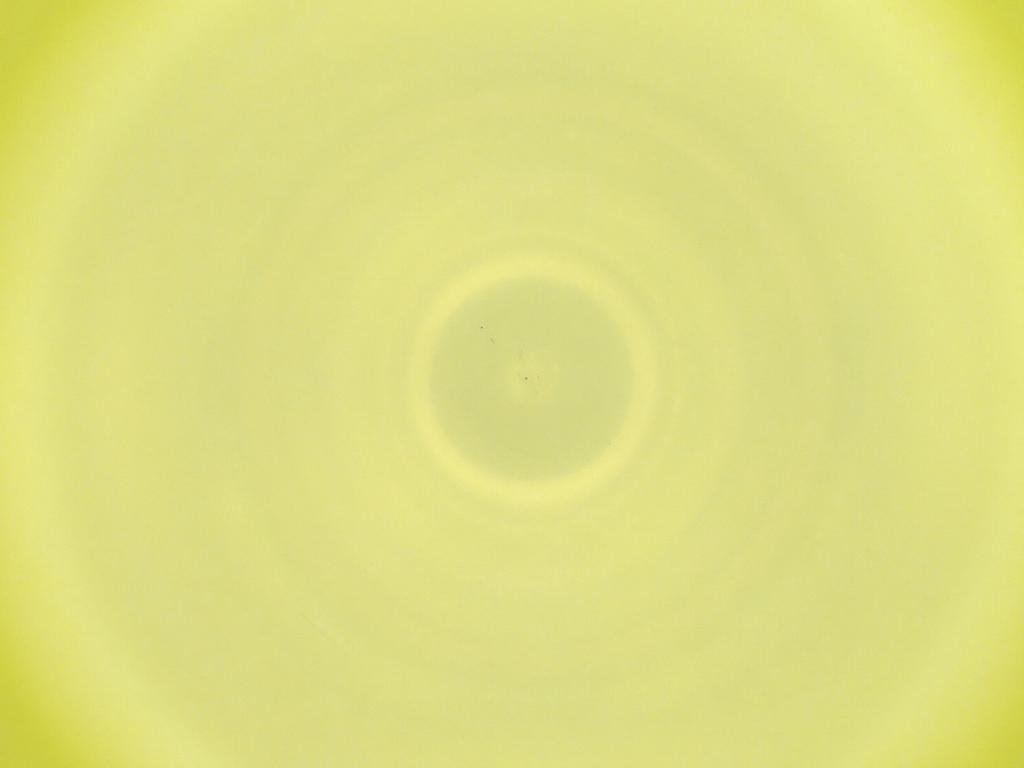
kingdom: Animalia
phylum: Arthropoda
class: Insecta
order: Diptera
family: Cecidomyiidae
